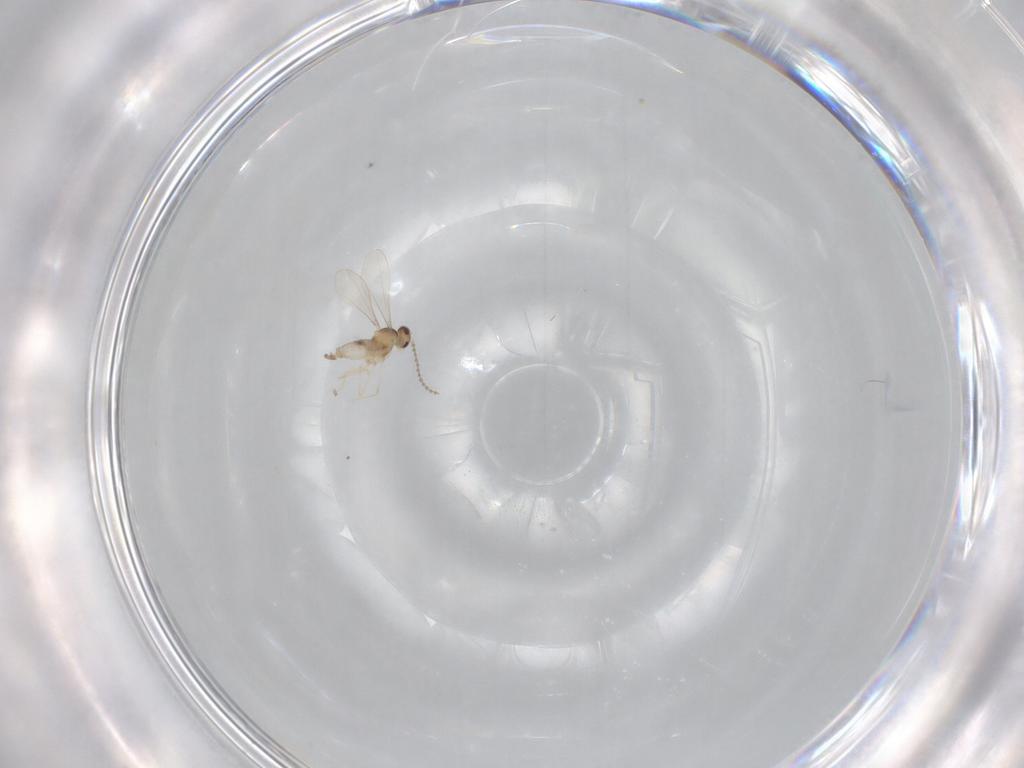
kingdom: Animalia
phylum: Arthropoda
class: Insecta
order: Diptera
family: Cecidomyiidae
